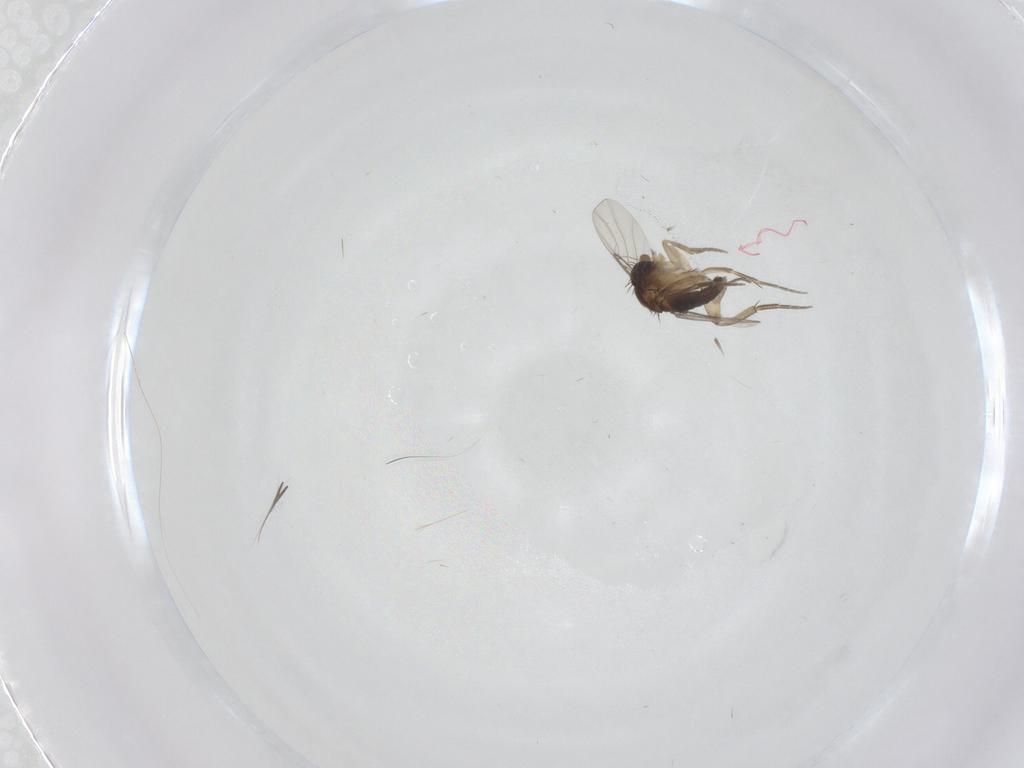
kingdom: Animalia
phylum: Arthropoda
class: Insecta
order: Diptera
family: Phoridae
